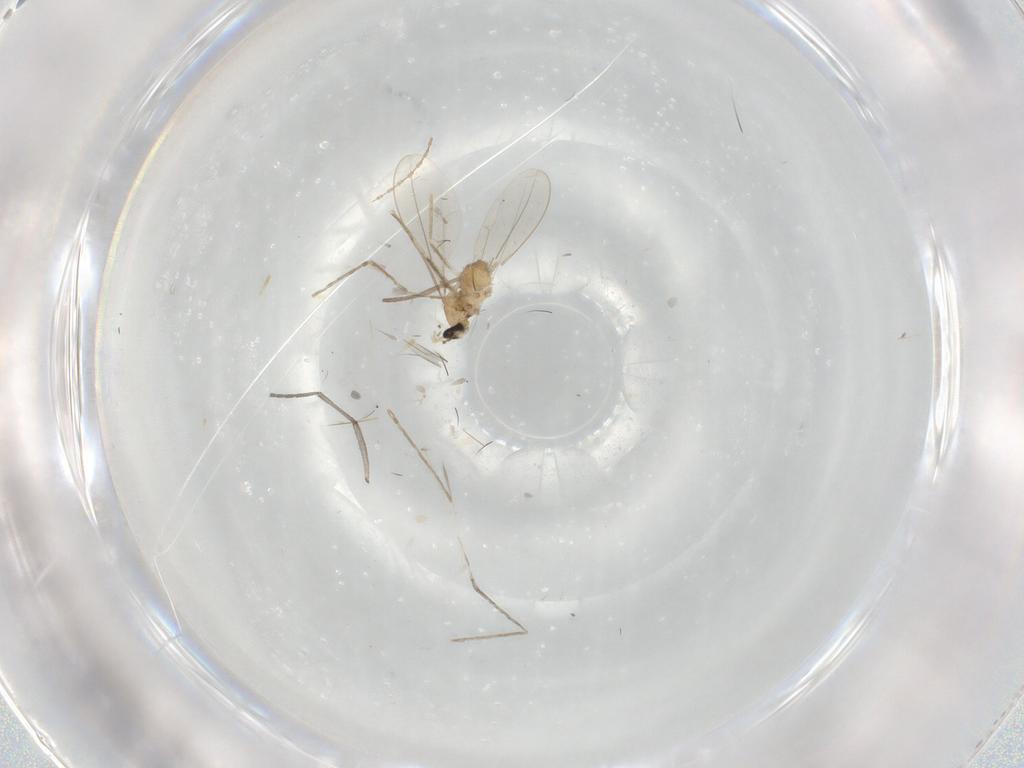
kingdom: Animalia
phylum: Arthropoda
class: Insecta
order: Diptera
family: Cecidomyiidae
